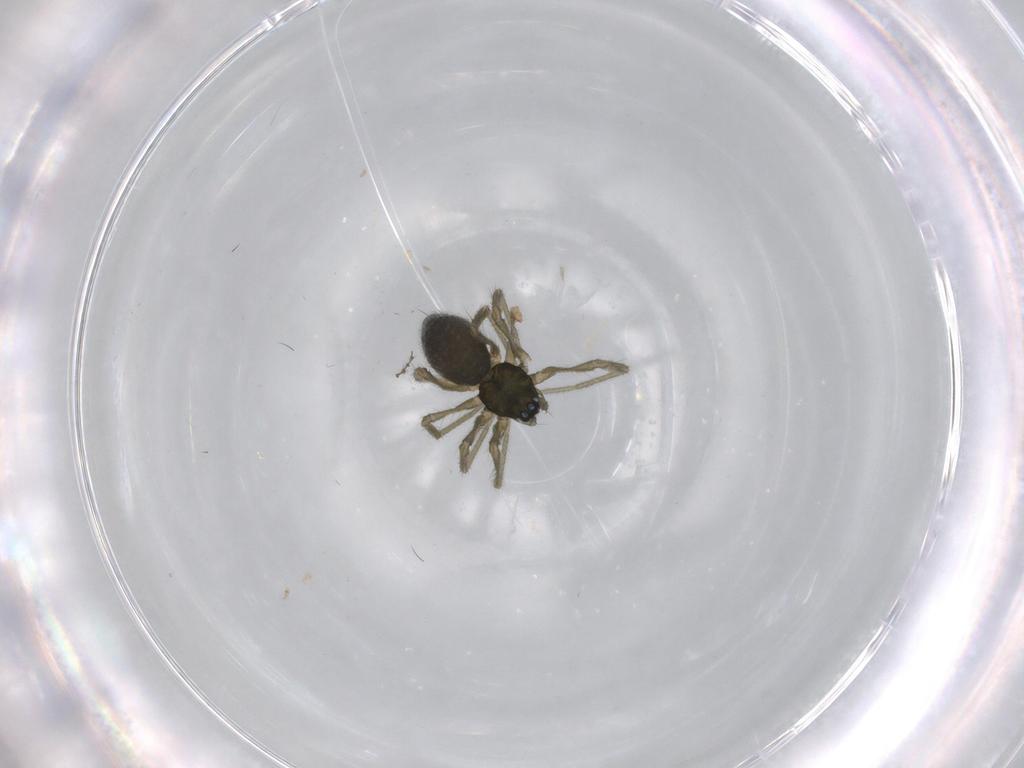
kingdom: Animalia
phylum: Arthropoda
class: Arachnida
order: Araneae
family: Linyphiidae
